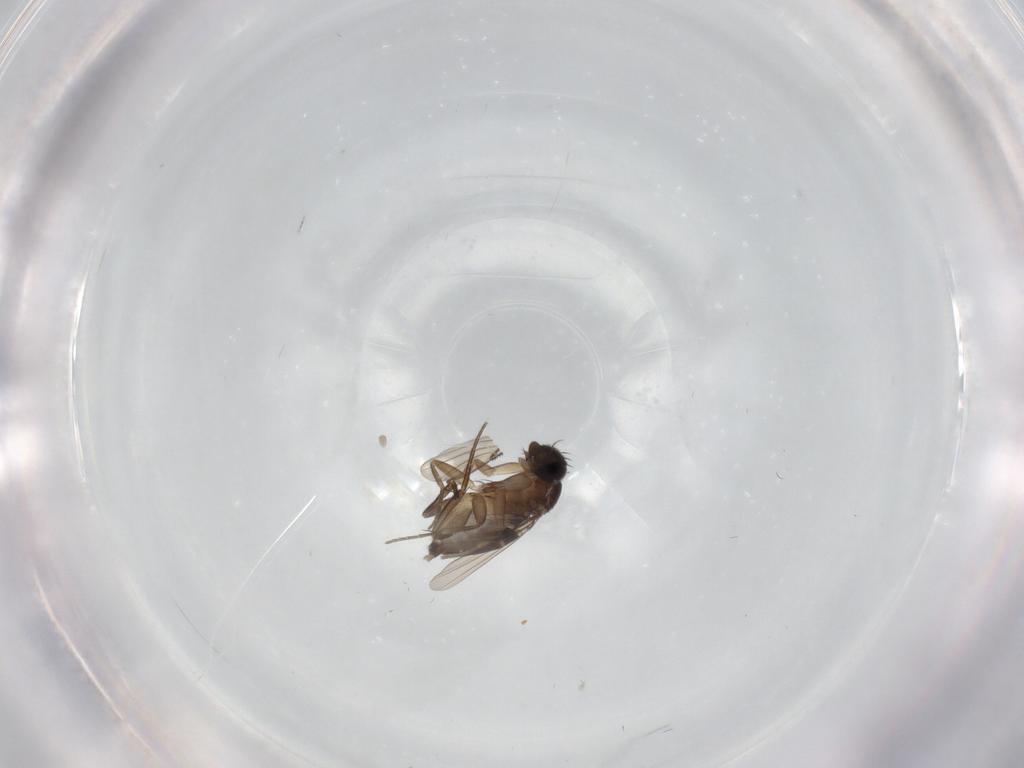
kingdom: Animalia
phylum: Arthropoda
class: Insecta
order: Diptera
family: Phoridae
